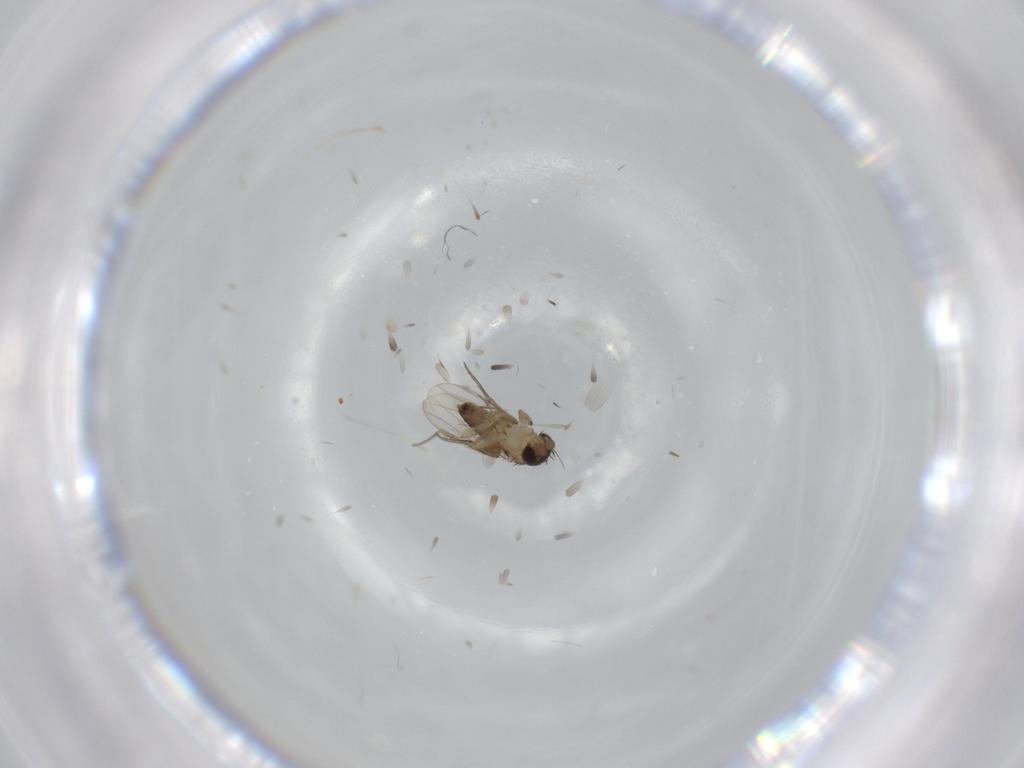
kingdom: Animalia
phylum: Arthropoda
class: Insecta
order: Diptera
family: Phoridae
